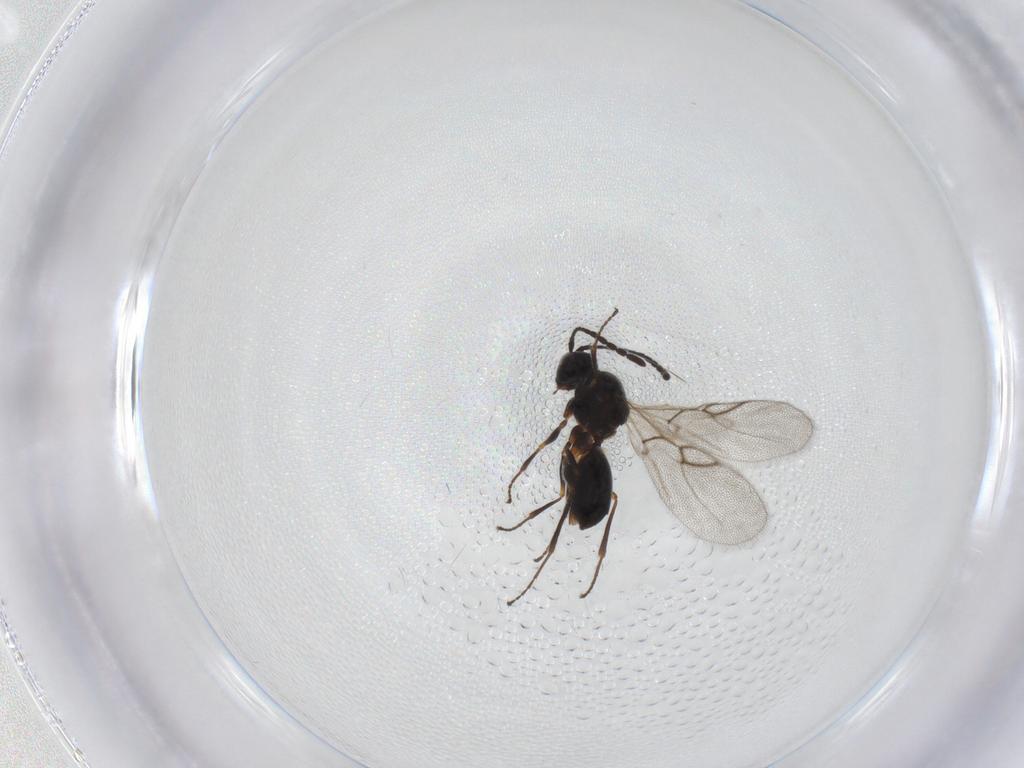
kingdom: Animalia
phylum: Arthropoda
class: Insecta
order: Hymenoptera
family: Figitidae
